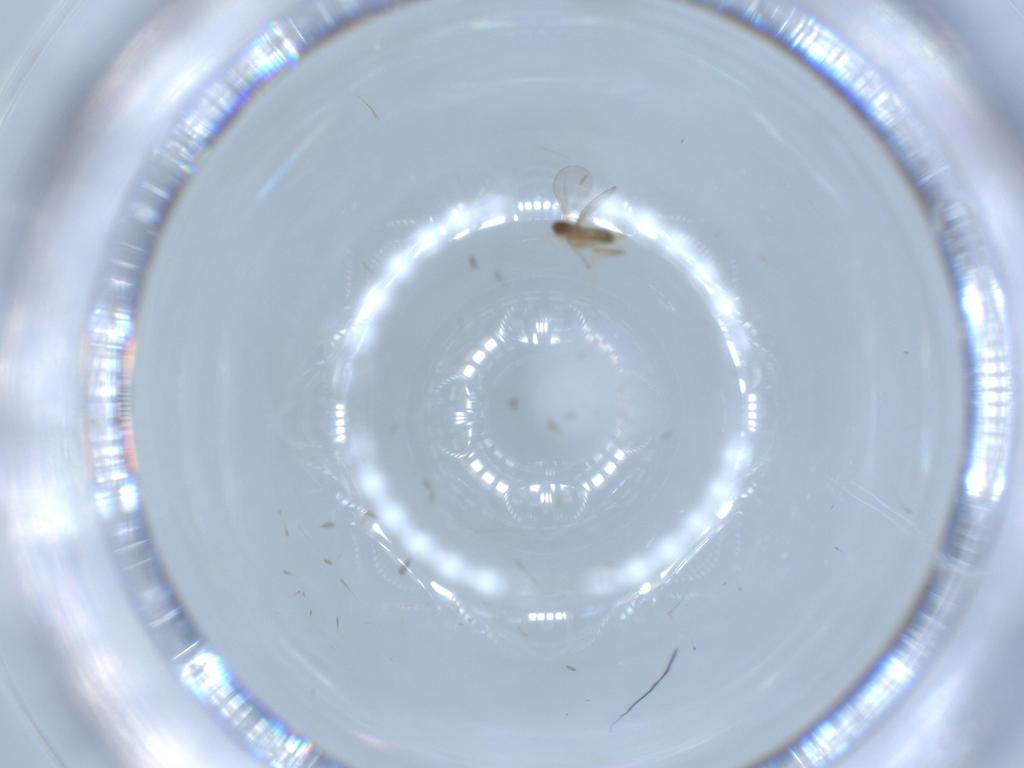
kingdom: Animalia
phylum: Arthropoda
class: Insecta
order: Diptera
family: Cecidomyiidae
